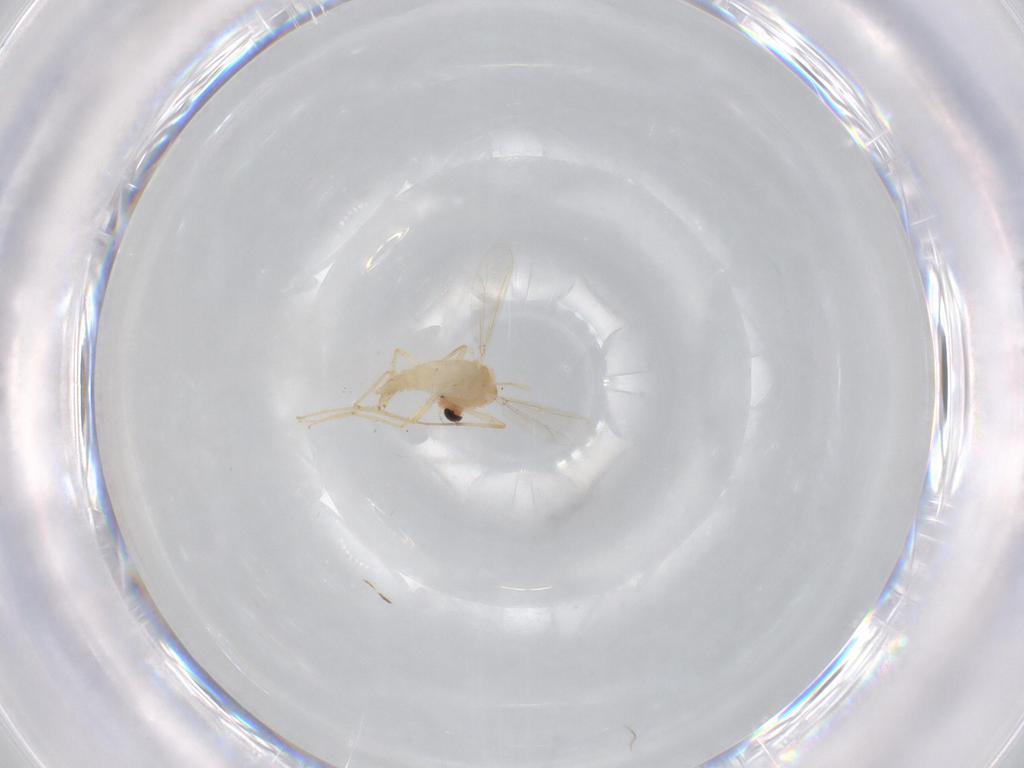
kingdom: Animalia
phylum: Arthropoda
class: Insecta
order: Diptera
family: Chironomidae
